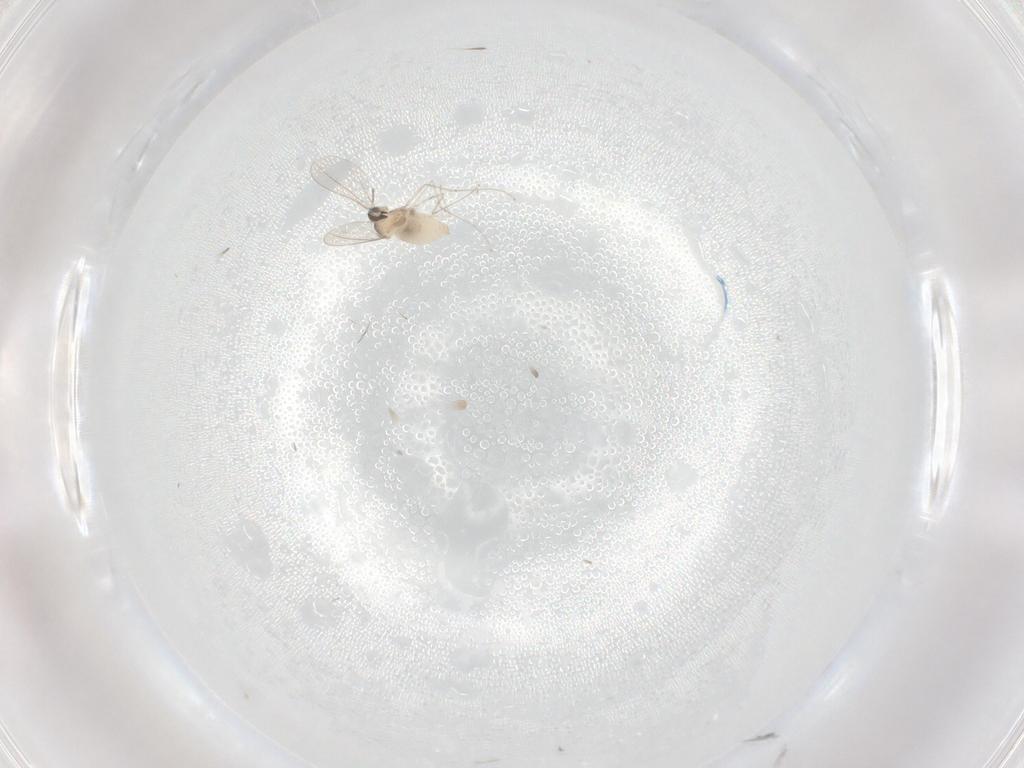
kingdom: Animalia
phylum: Arthropoda
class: Insecta
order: Diptera
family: Cecidomyiidae
